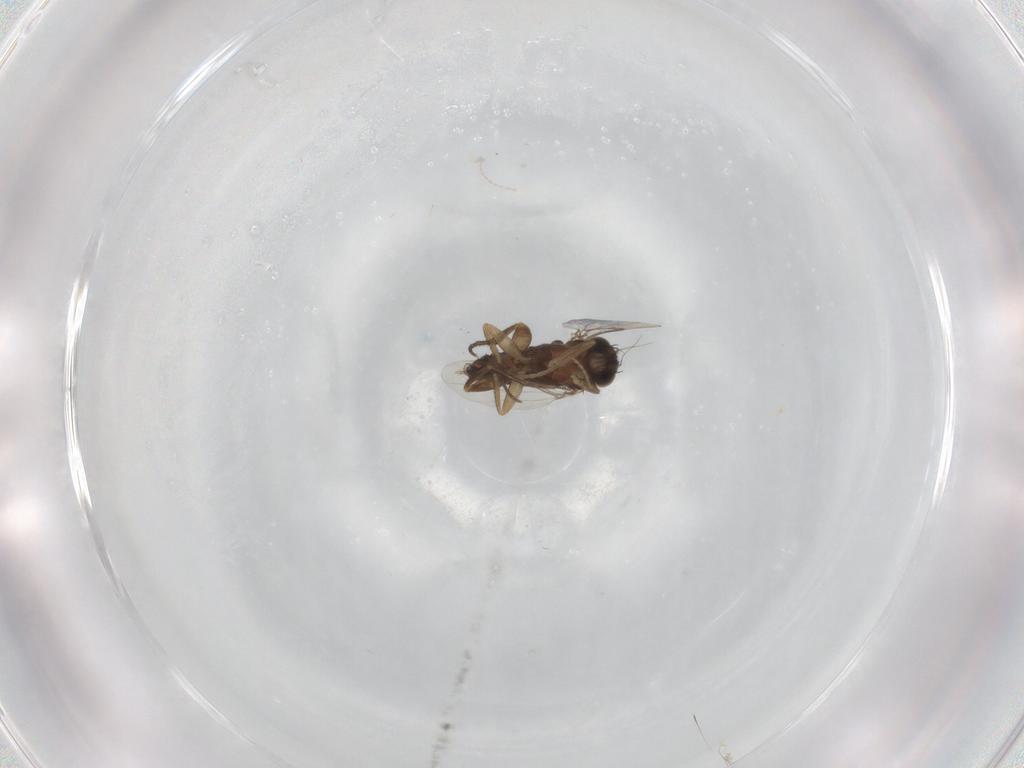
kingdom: Animalia
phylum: Arthropoda
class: Insecta
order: Diptera
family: Phoridae
